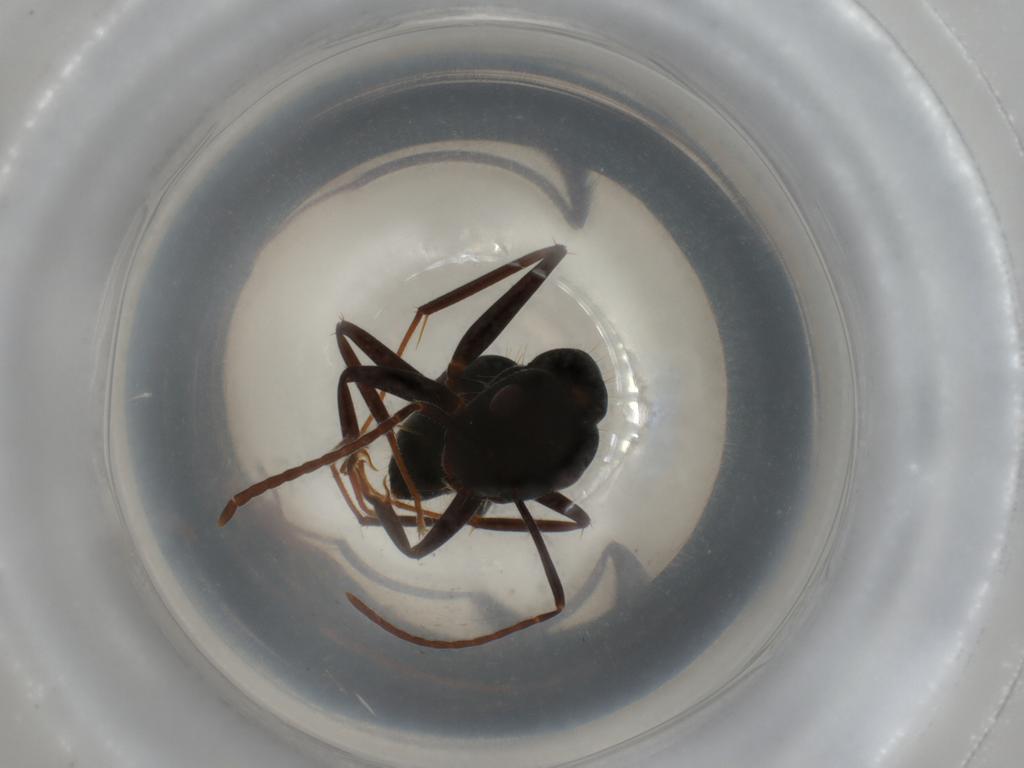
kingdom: Animalia
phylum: Arthropoda
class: Insecta
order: Hymenoptera
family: Formicidae
